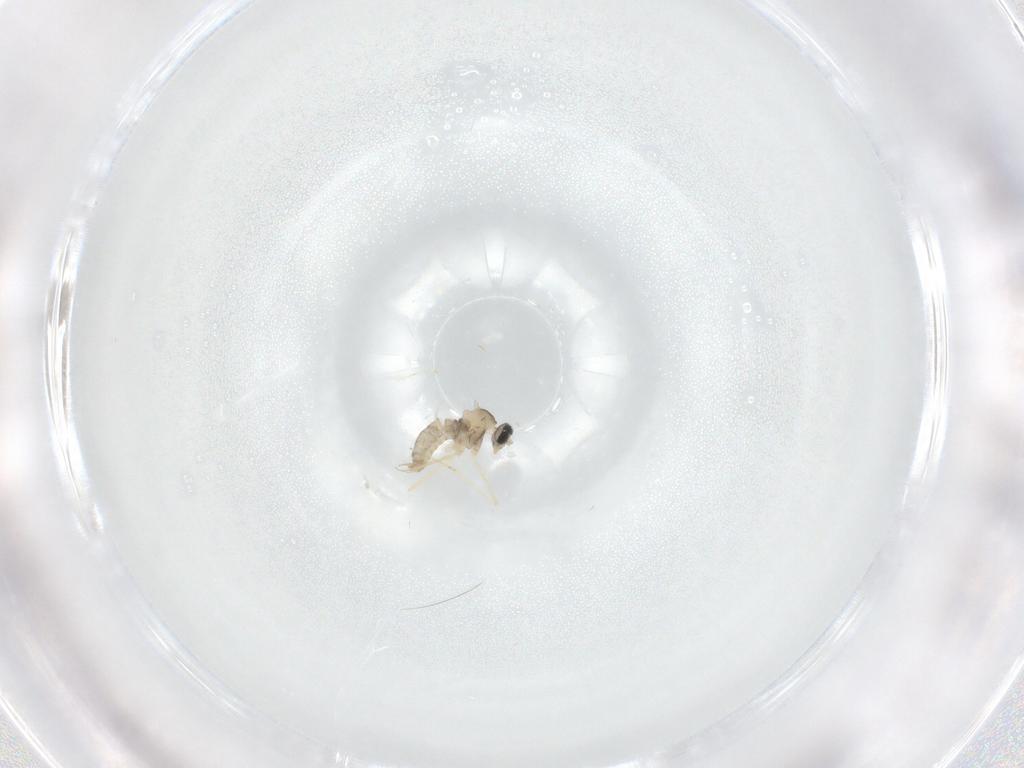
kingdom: Animalia
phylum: Arthropoda
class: Insecta
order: Diptera
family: Cecidomyiidae
